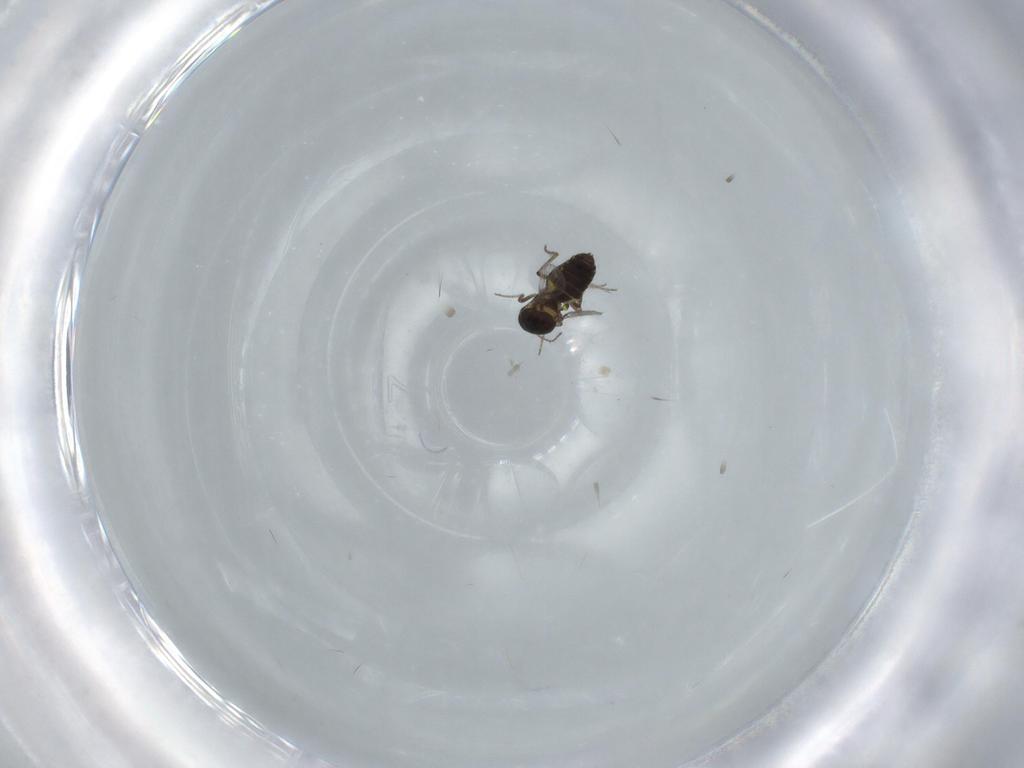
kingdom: Animalia
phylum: Arthropoda
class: Insecta
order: Diptera
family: Ceratopogonidae
